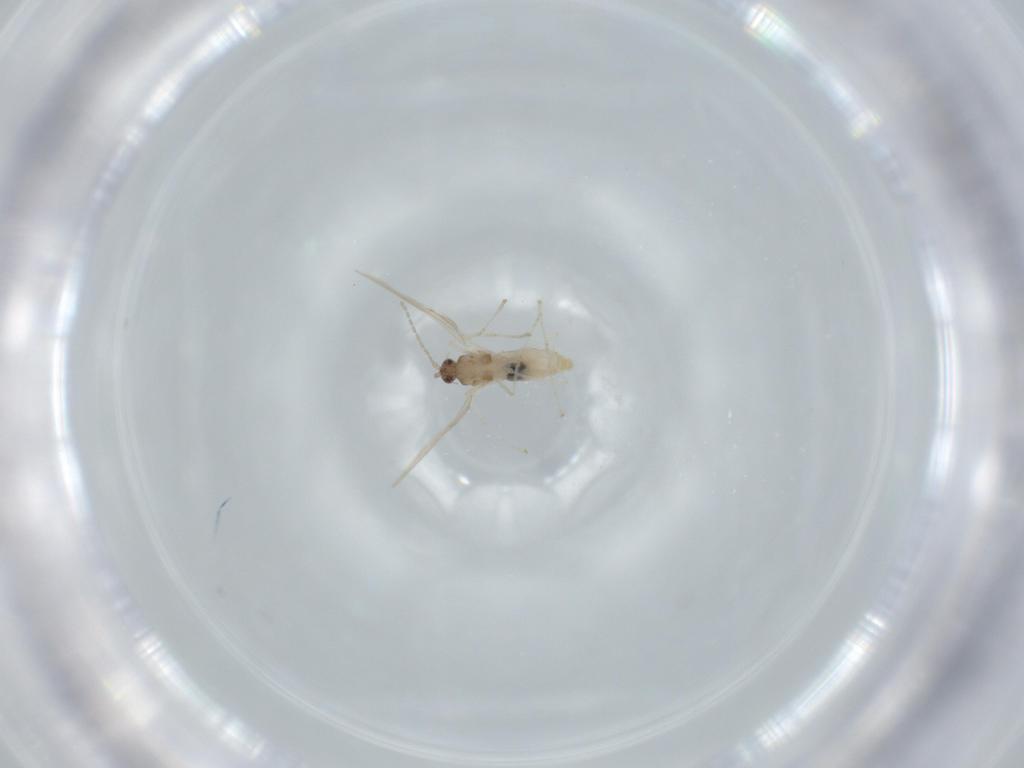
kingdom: Animalia
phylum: Arthropoda
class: Insecta
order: Diptera
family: Cecidomyiidae
